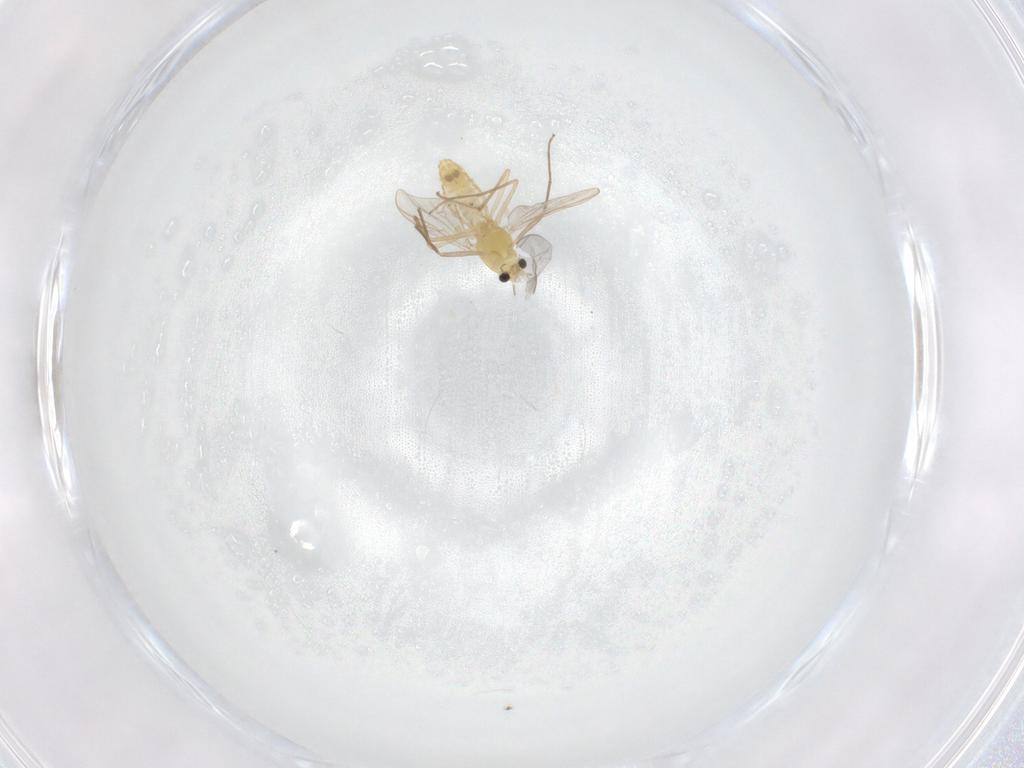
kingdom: Animalia
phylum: Arthropoda
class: Insecta
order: Diptera
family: Chironomidae
